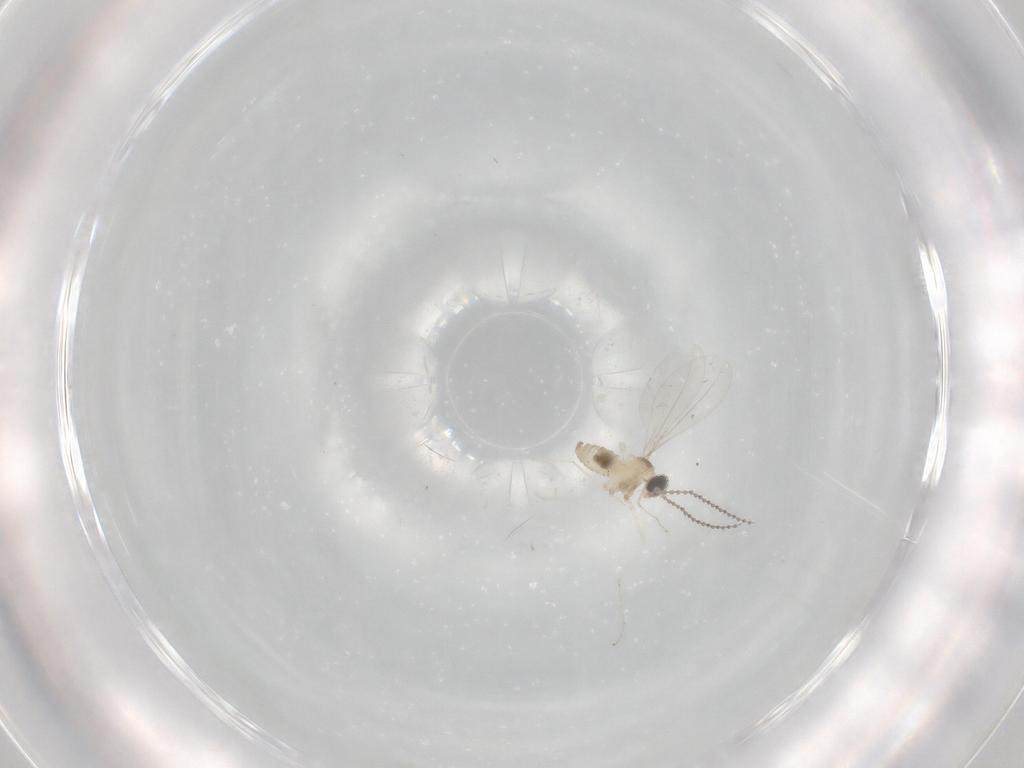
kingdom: Animalia
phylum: Arthropoda
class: Insecta
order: Diptera
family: Cecidomyiidae
